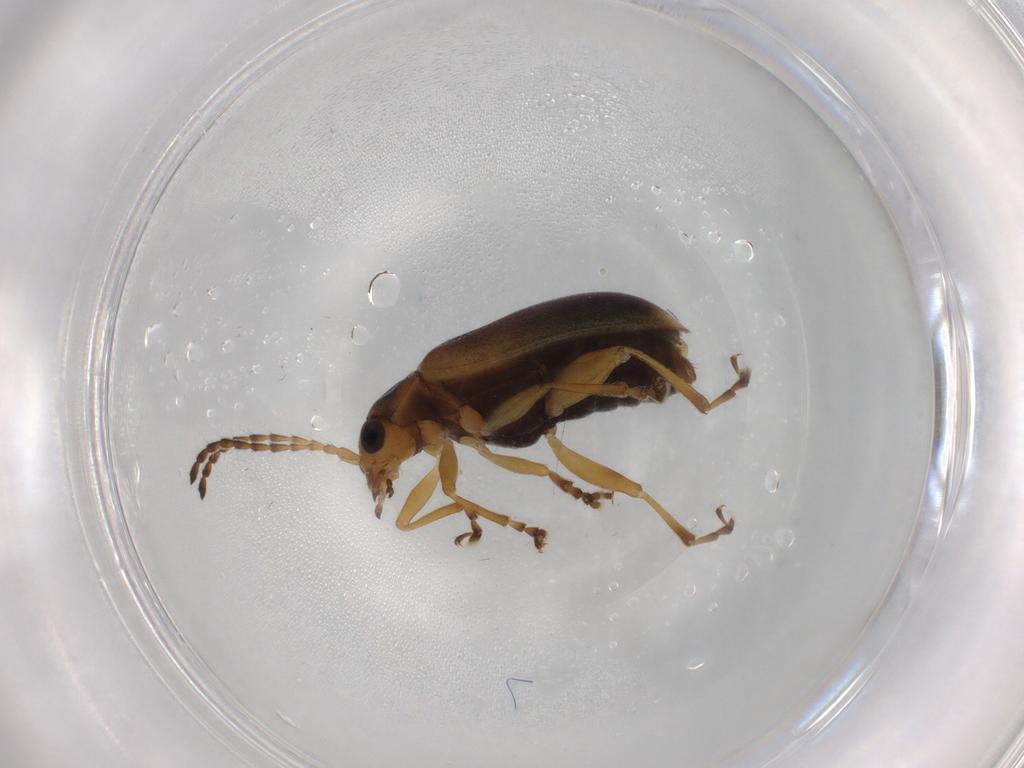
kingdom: Animalia
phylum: Arthropoda
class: Insecta
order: Coleoptera
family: Chrysomelidae
